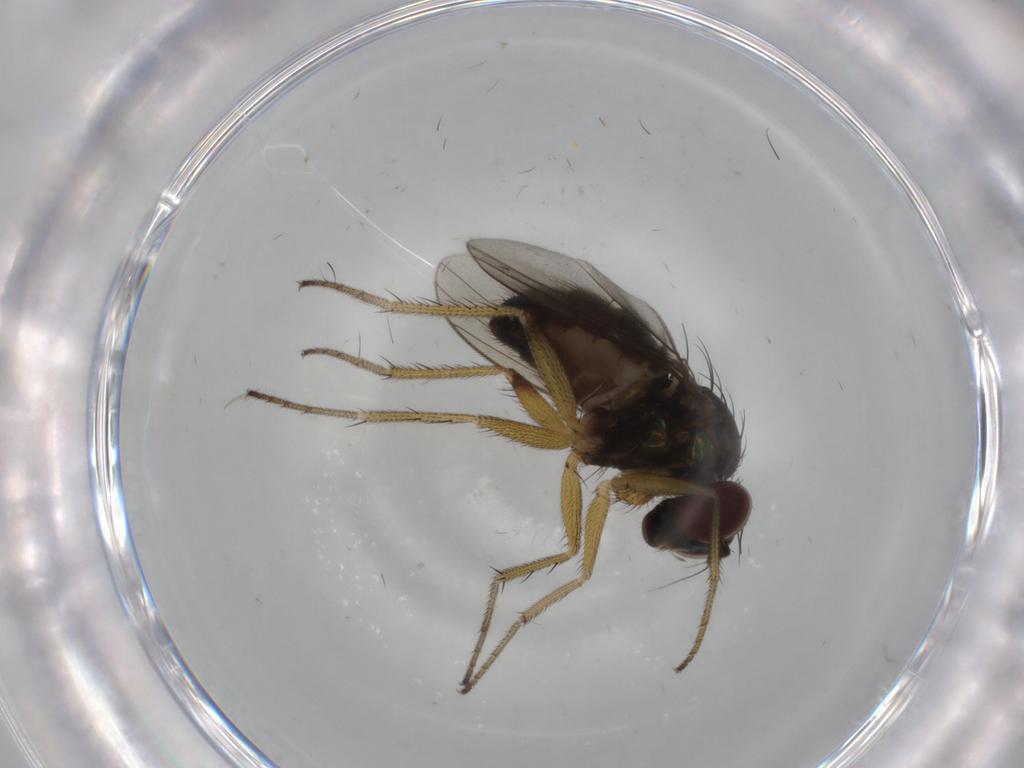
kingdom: Animalia
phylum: Arthropoda
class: Insecta
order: Diptera
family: Dolichopodidae
